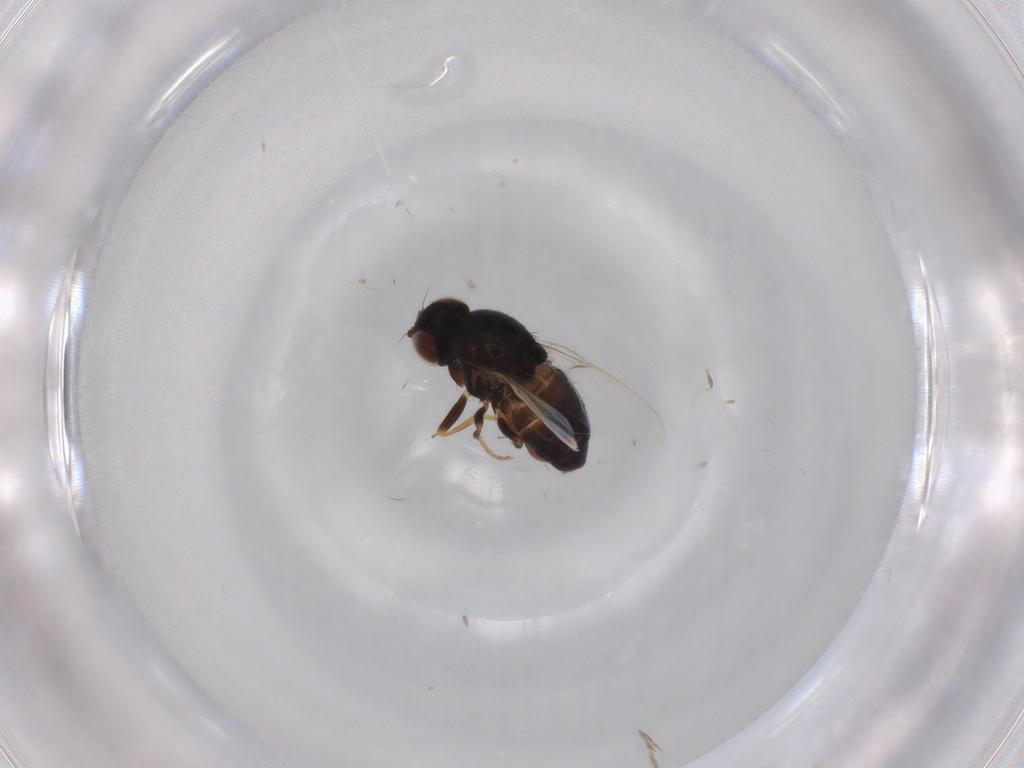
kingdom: Animalia
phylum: Arthropoda
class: Insecta
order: Diptera
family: Chloropidae
